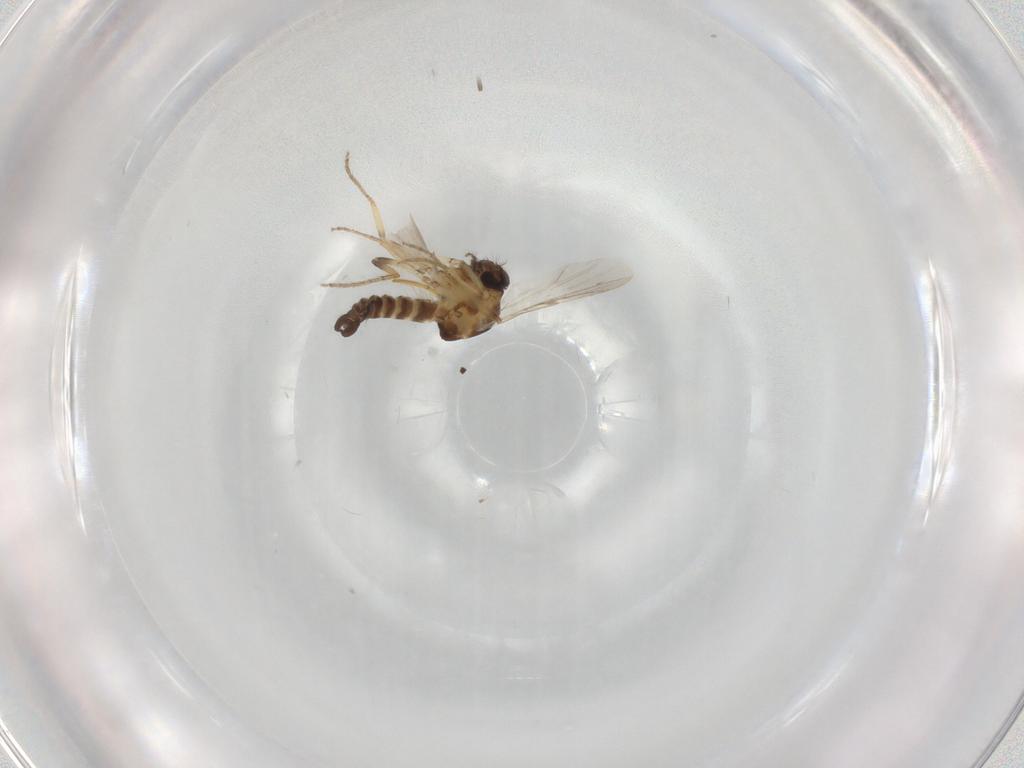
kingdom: Animalia
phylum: Arthropoda
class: Insecta
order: Diptera
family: Ceratopogonidae
